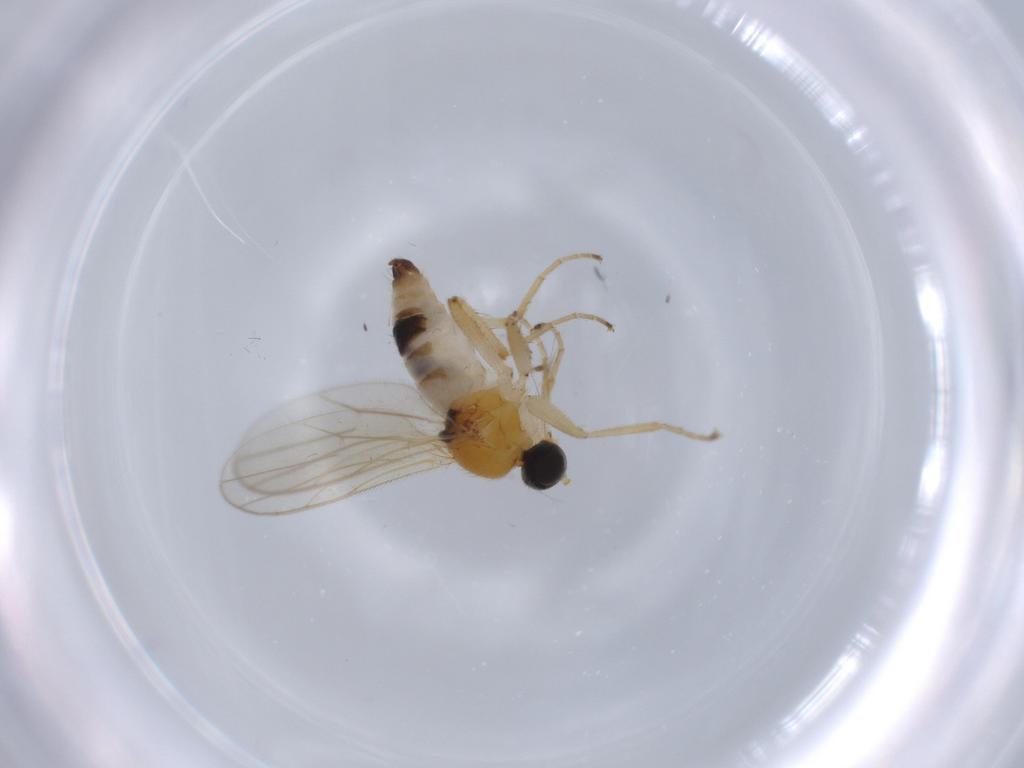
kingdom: Animalia
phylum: Arthropoda
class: Insecta
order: Diptera
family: Hybotidae
